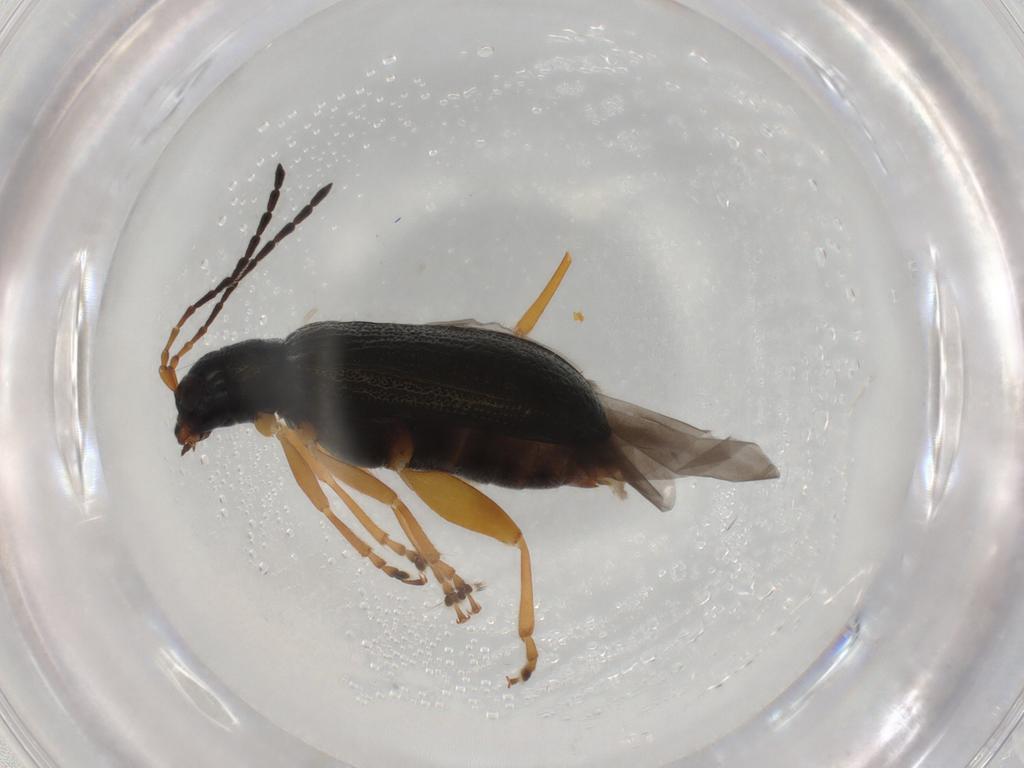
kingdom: Animalia
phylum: Arthropoda
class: Insecta
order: Coleoptera
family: Chrysomelidae
